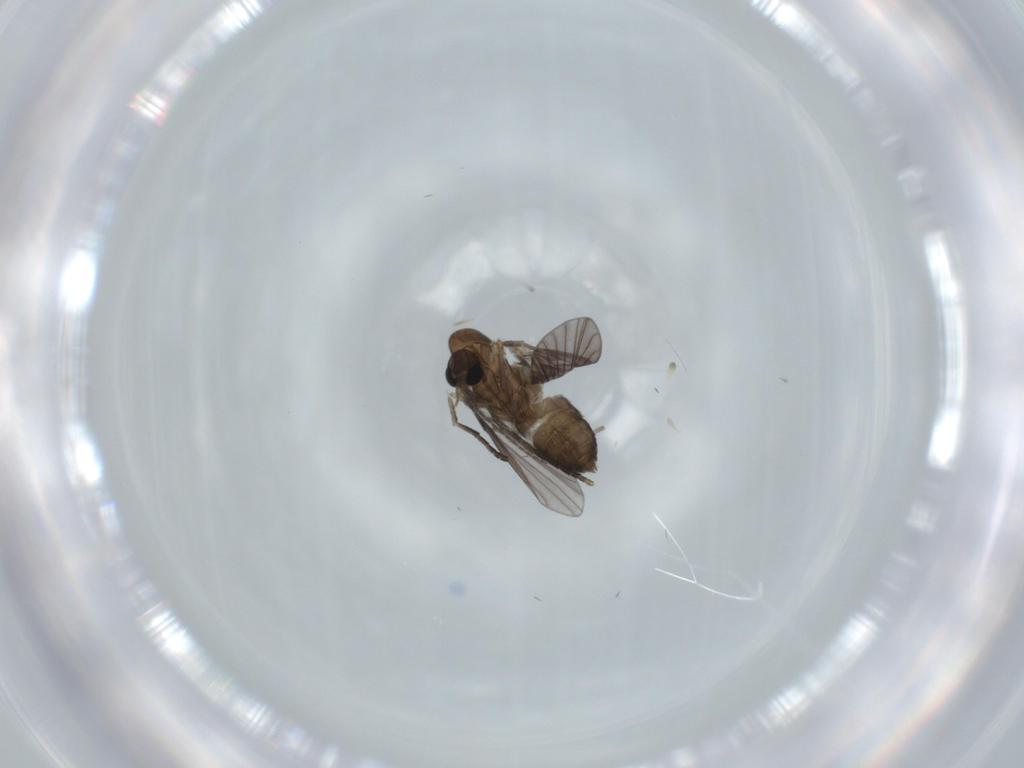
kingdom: Animalia
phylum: Arthropoda
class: Insecta
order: Diptera
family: Psychodidae
